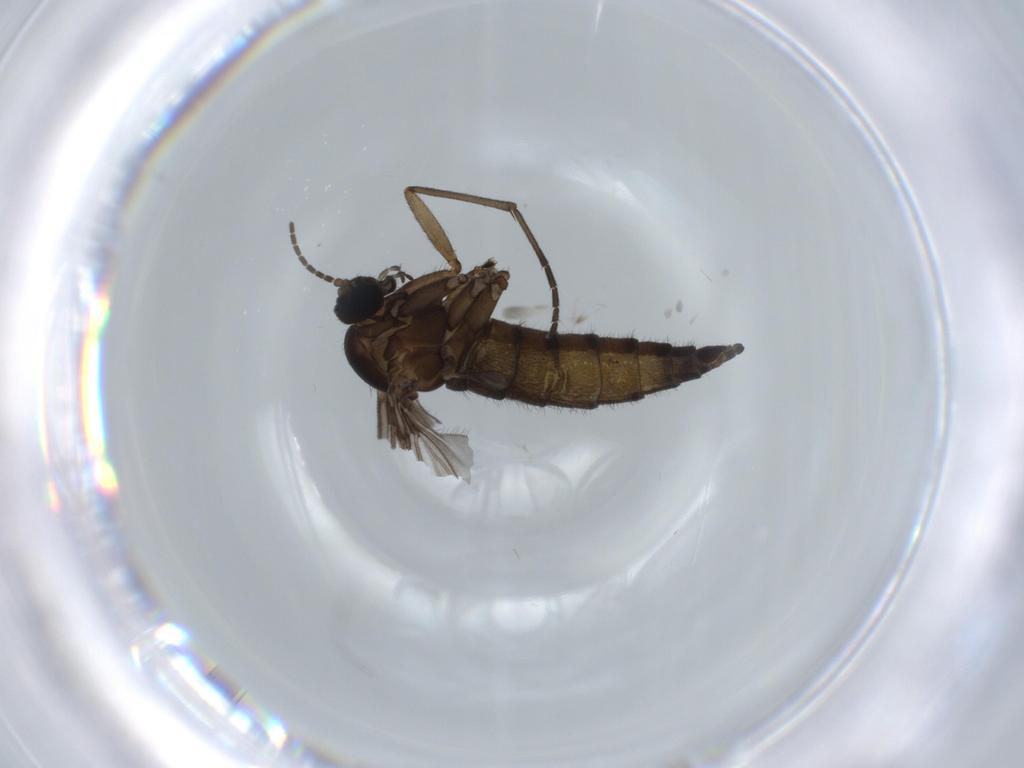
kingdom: Animalia
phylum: Arthropoda
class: Insecta
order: Diptera
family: Sciaridae
